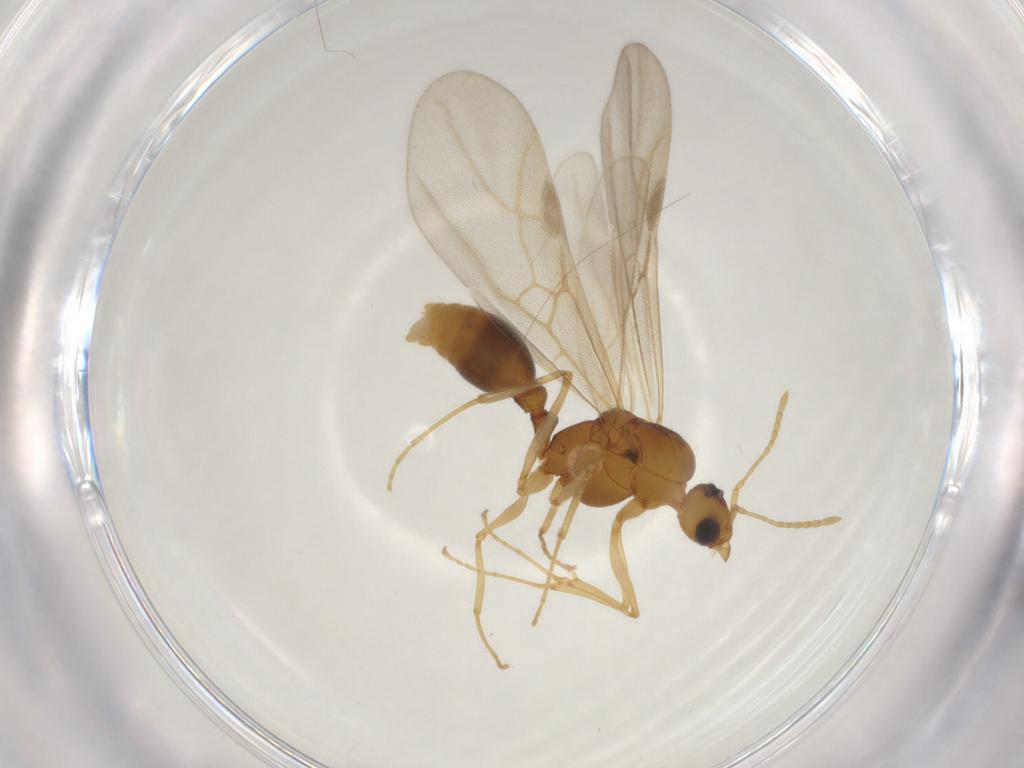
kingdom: Animalia
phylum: Arthropoda
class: Insecta
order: Hymenoptera
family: Formicidae
